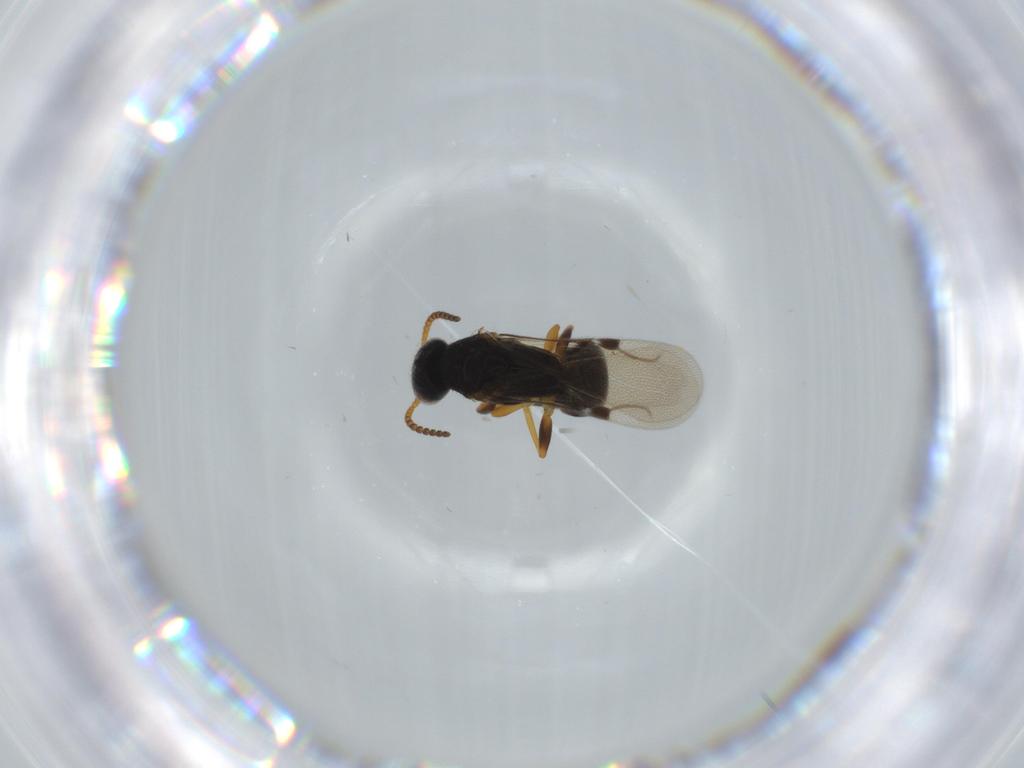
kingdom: Animalia
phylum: Arthropoda
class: Insecta
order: Hymenoptera
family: Bethylidae
